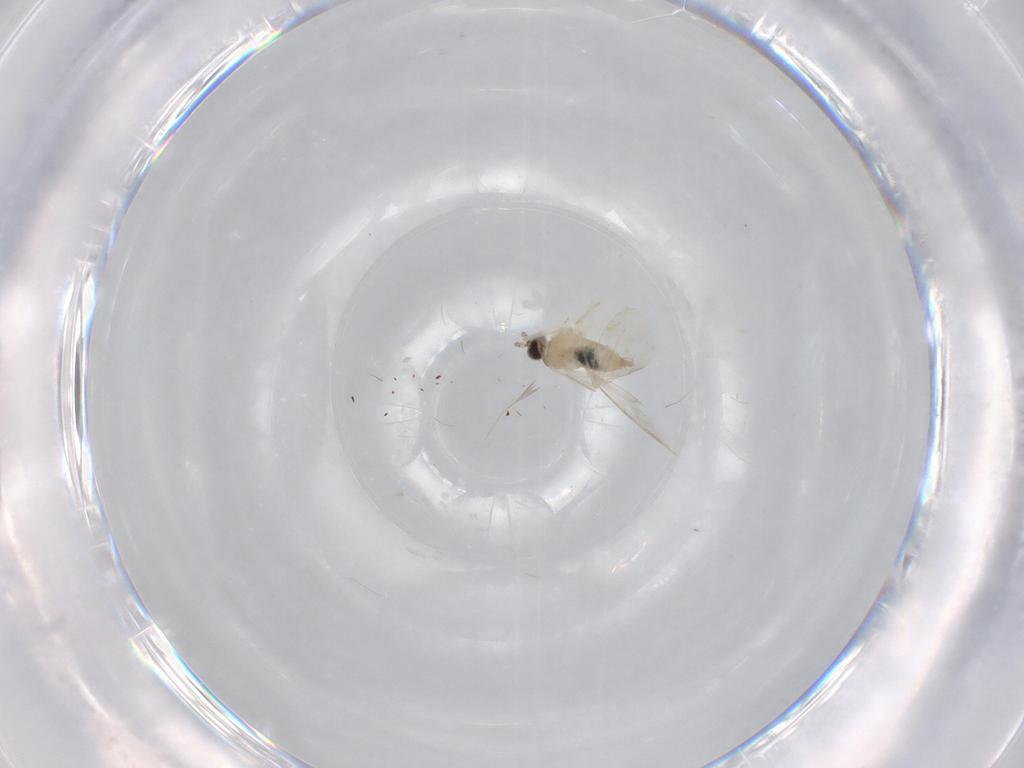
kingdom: Animalia
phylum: Arthropoda
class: Insecta
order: Diptera
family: Cecidomyiidae
